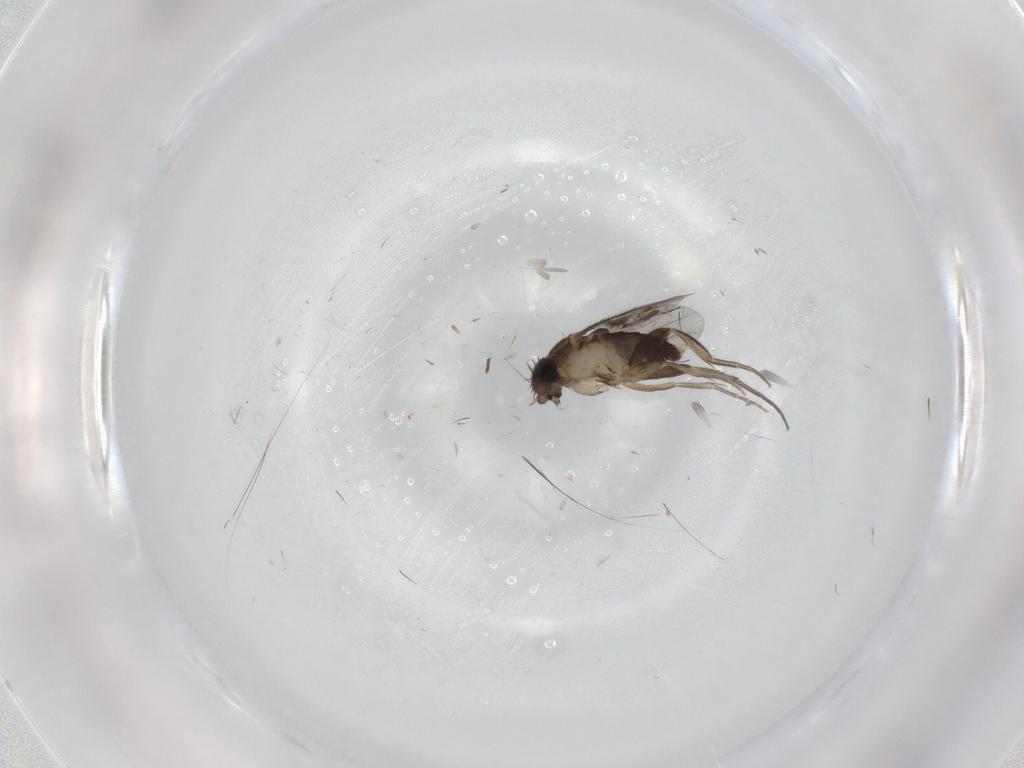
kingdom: Animalia
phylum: Arthropoda
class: Insecta
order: Diptera
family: Phoridae
